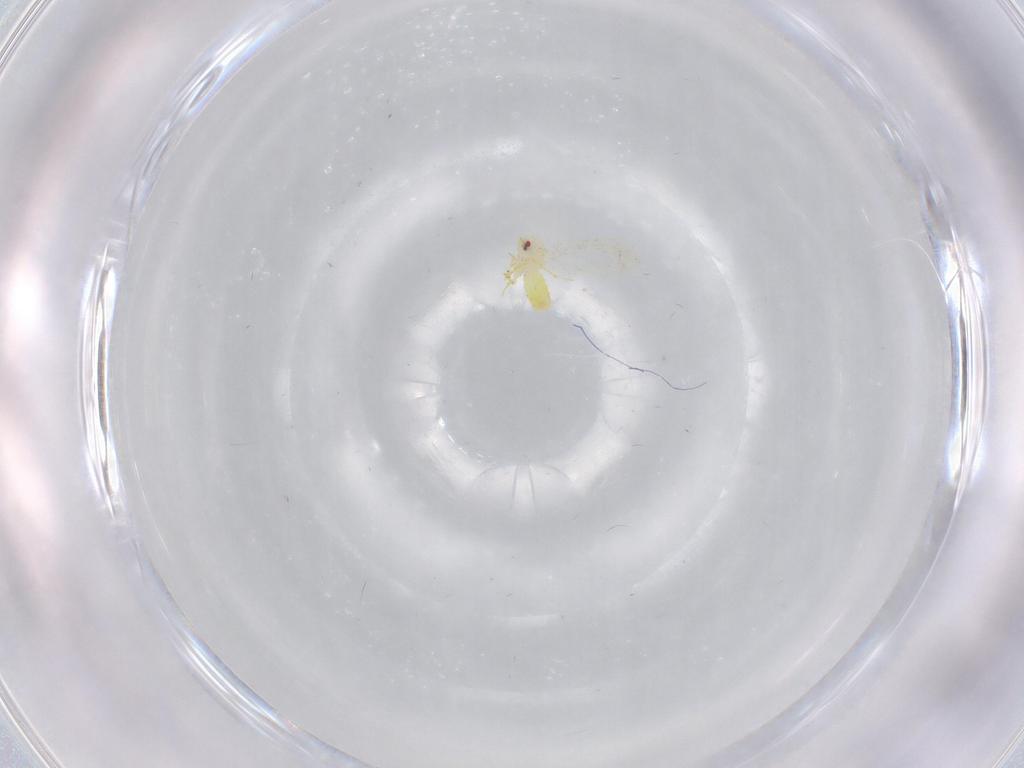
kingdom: Animalia
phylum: Arthropoda
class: Insecta
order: Hemiptera
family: Aleyrodidae
